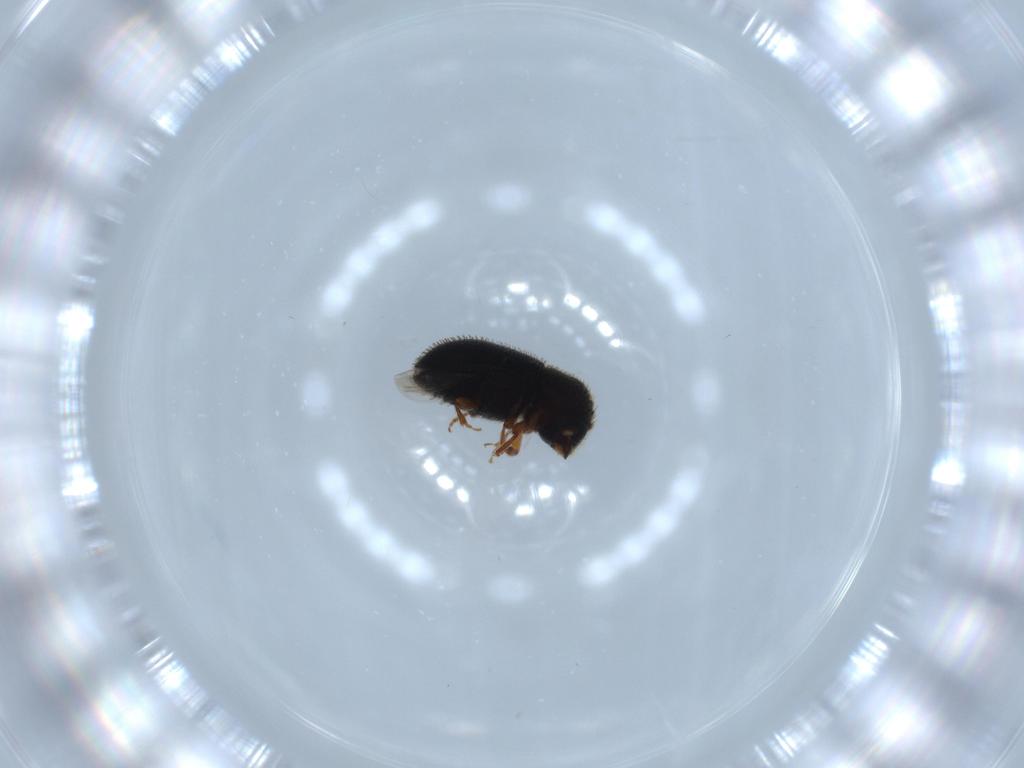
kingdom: Animalia
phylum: Arthropoda
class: Insecta
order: Coleoptera
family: Curculionidae
